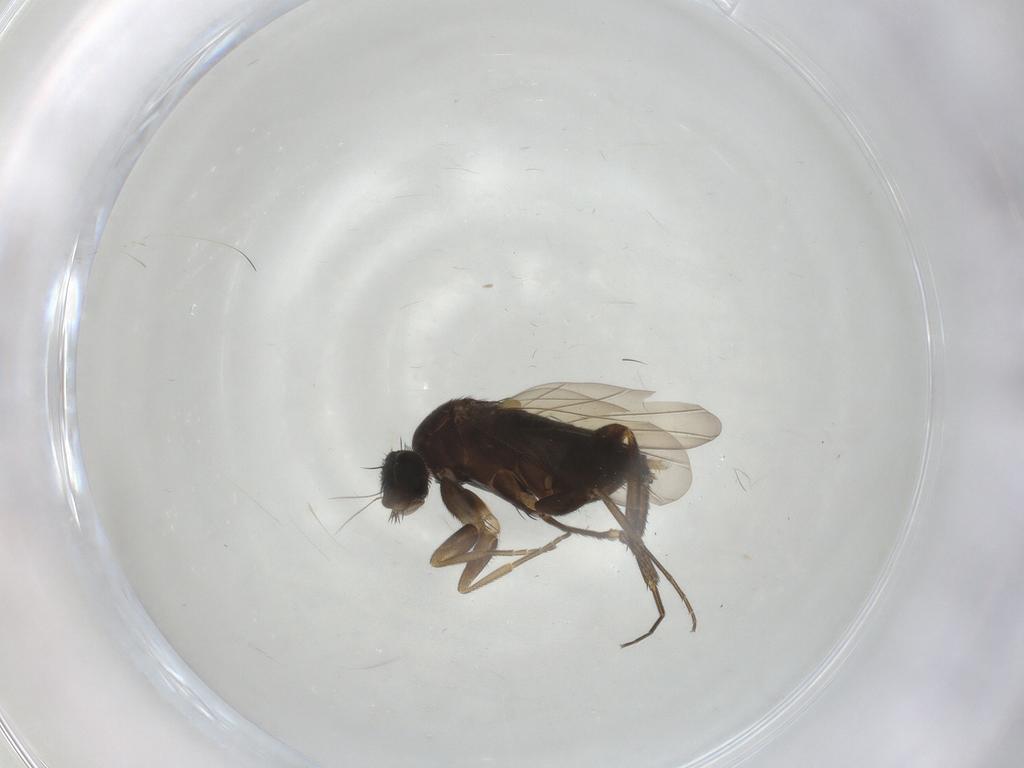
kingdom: Animalia
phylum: Arthropoda
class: Insecta
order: Diptera
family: Phoridae
